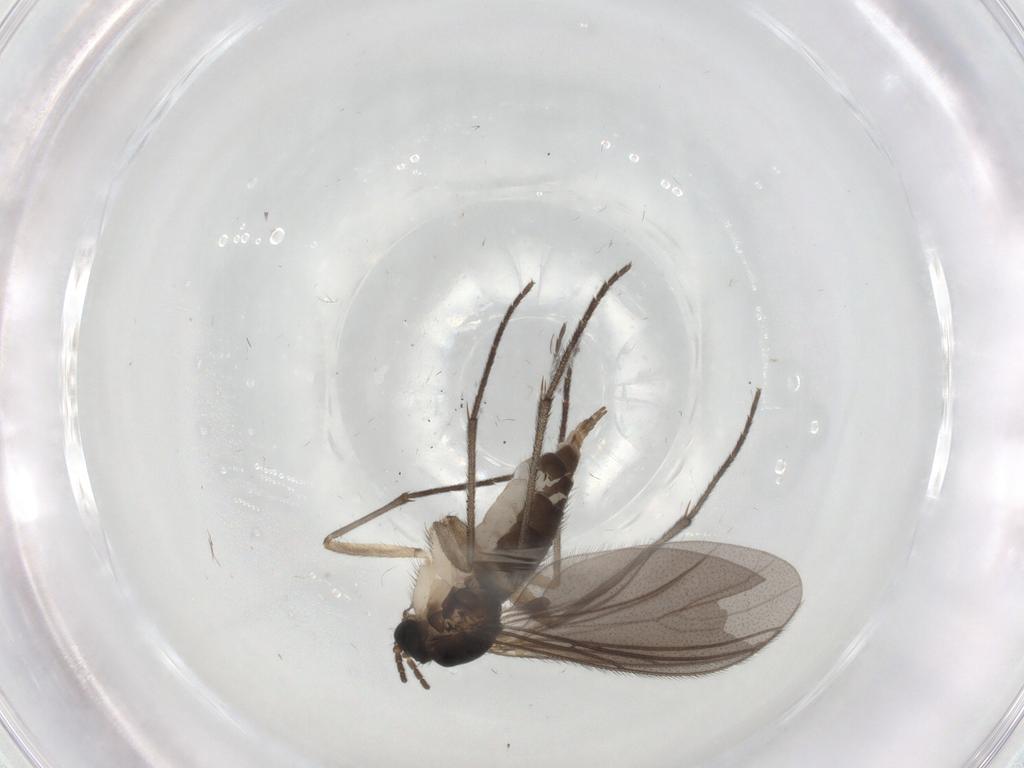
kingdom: Animalia
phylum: Arthropoda
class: Insecta
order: Diptera
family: Sciaridae
